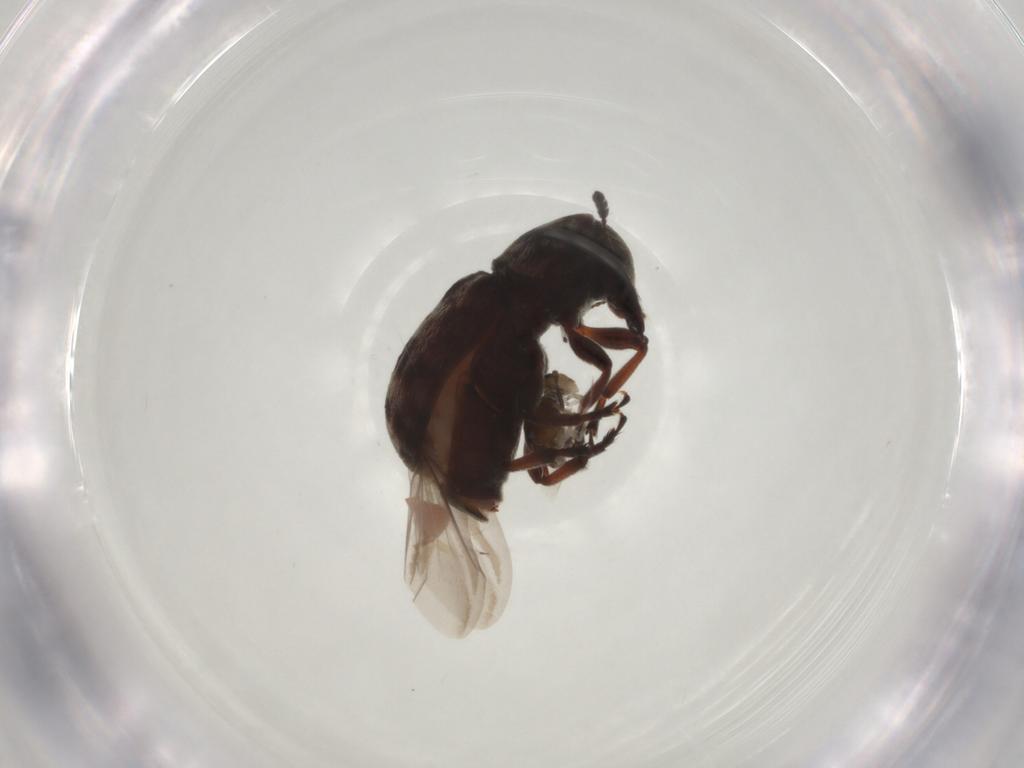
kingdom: Animalia
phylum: Arthropoda
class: Insecta
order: Coleoptera
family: Anthribidae
